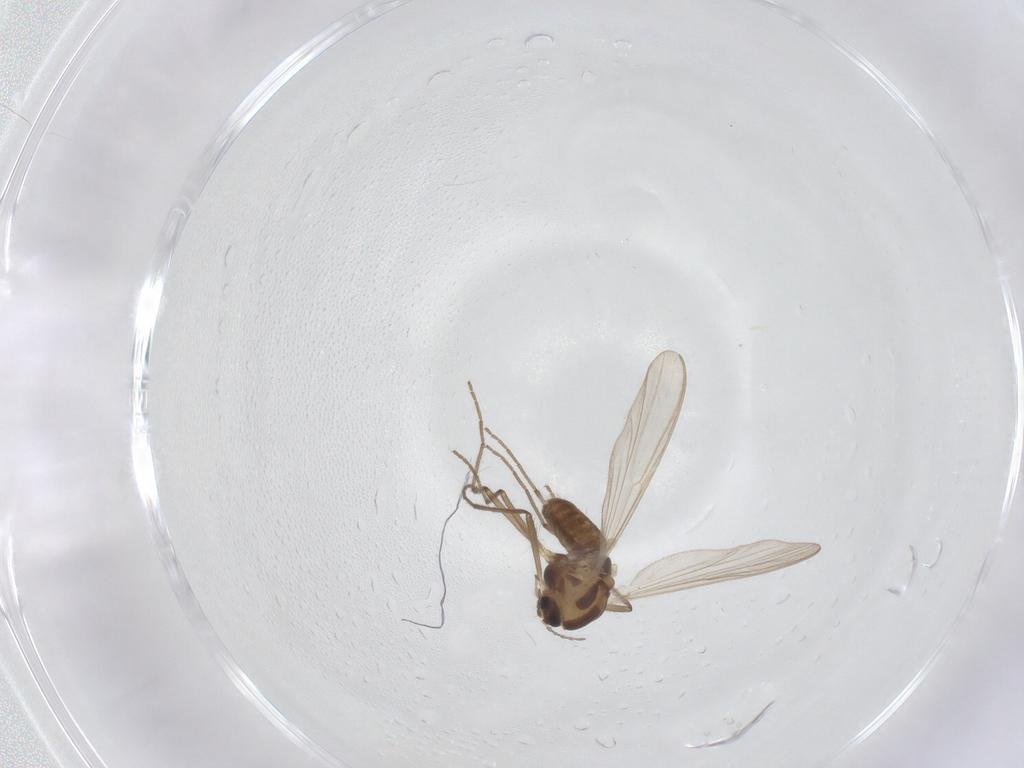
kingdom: Animalia
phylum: Arthropoda
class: Insecta
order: Diptera
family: Chironomidae
